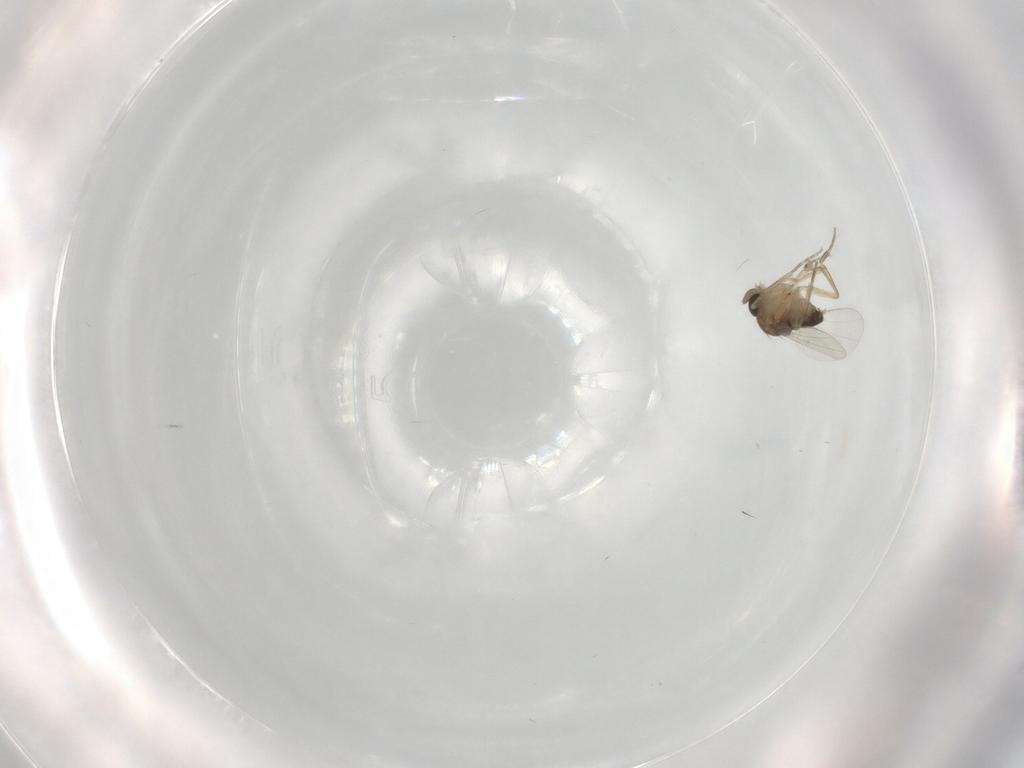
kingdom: Animalia
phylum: Arthropoda
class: Insecta
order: Diptera
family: Phoridae
